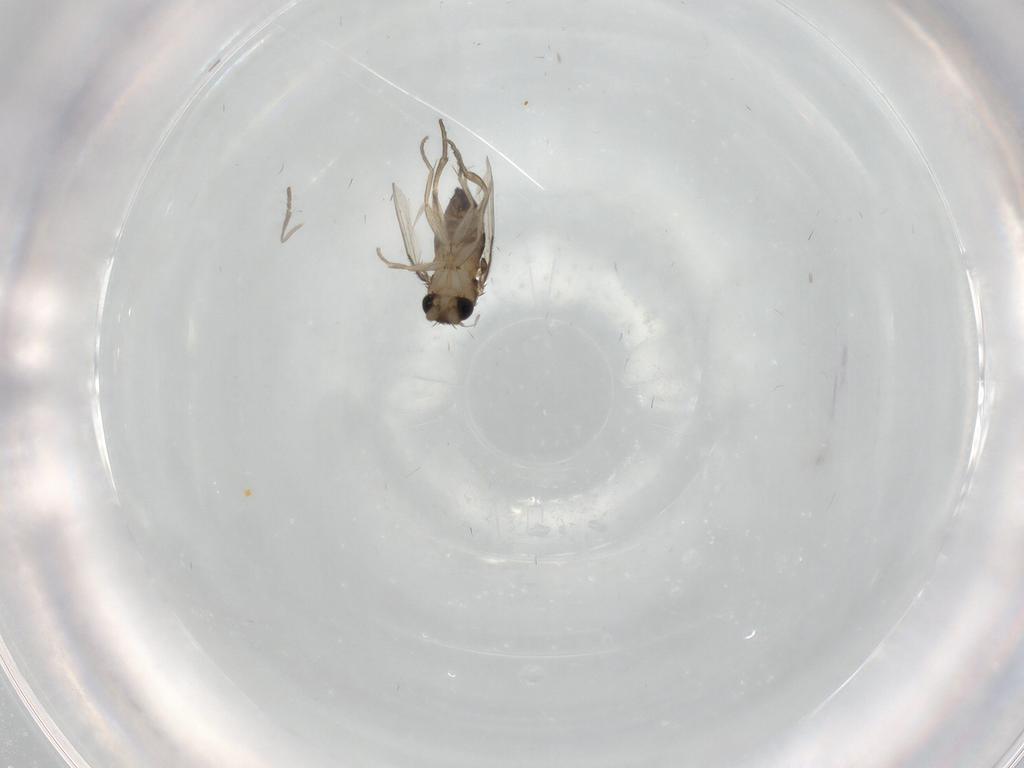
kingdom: Animalia
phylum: Arthropoda
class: Insecta
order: Diptera
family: Psychodidae
